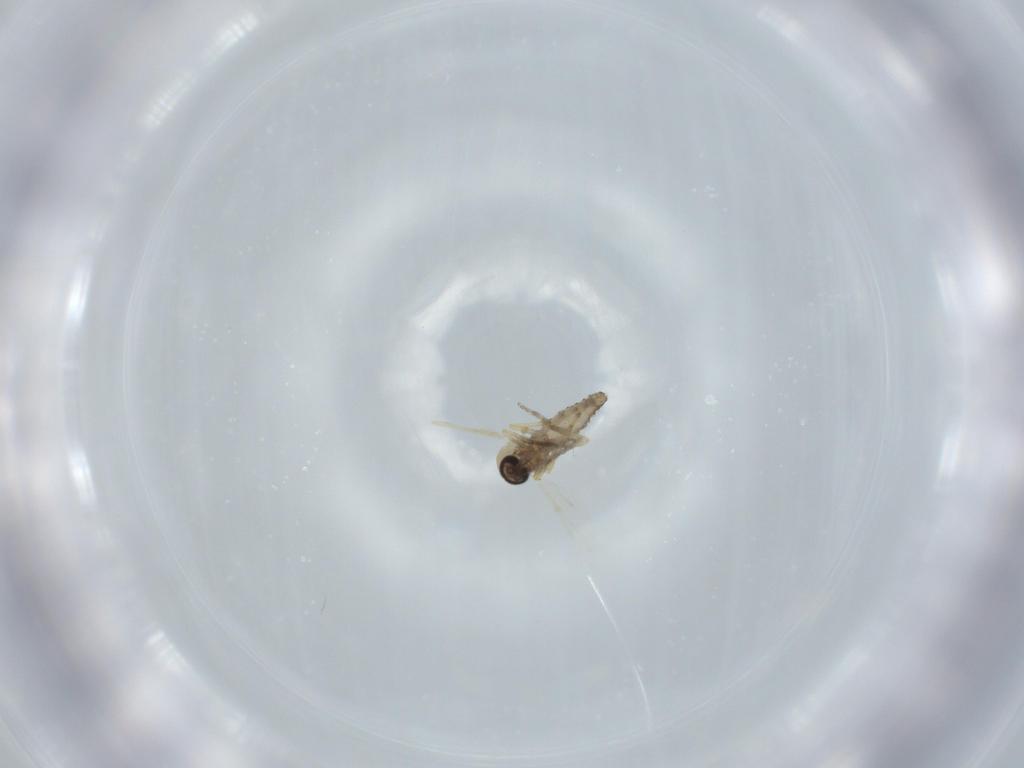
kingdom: Animalia
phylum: Arthropoda
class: Insecta
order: Diptera
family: Ceratopogonidae
